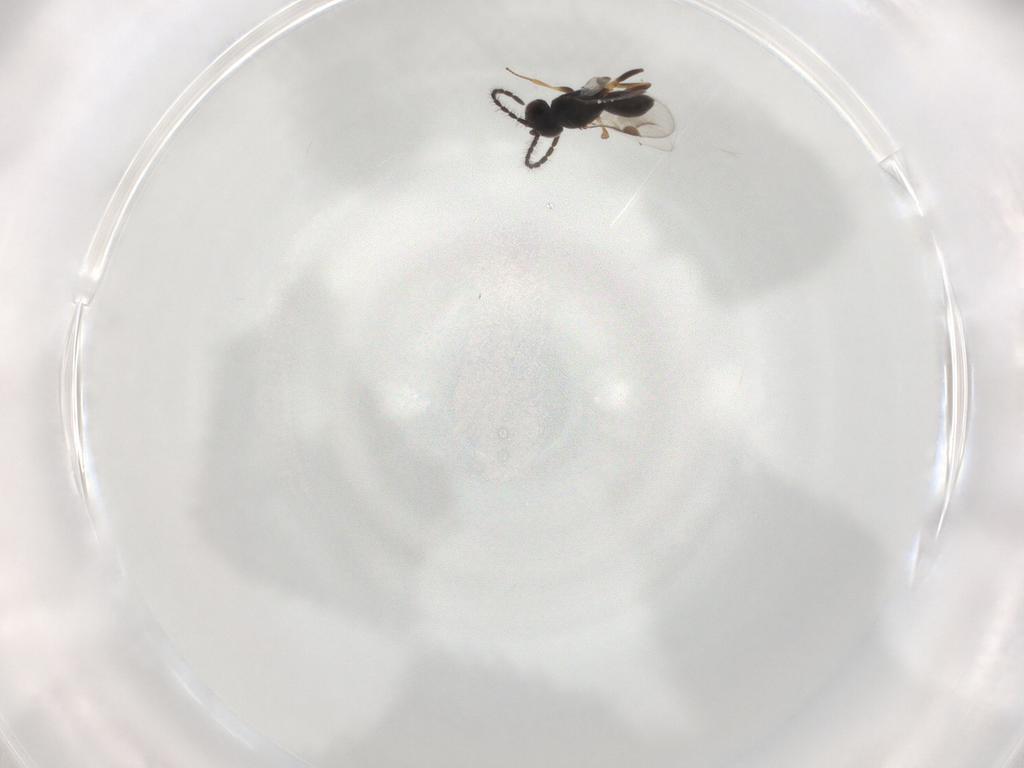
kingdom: Animalia
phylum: Arthropoda
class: Insecta
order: Hymenoptera
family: Megaspilidae
